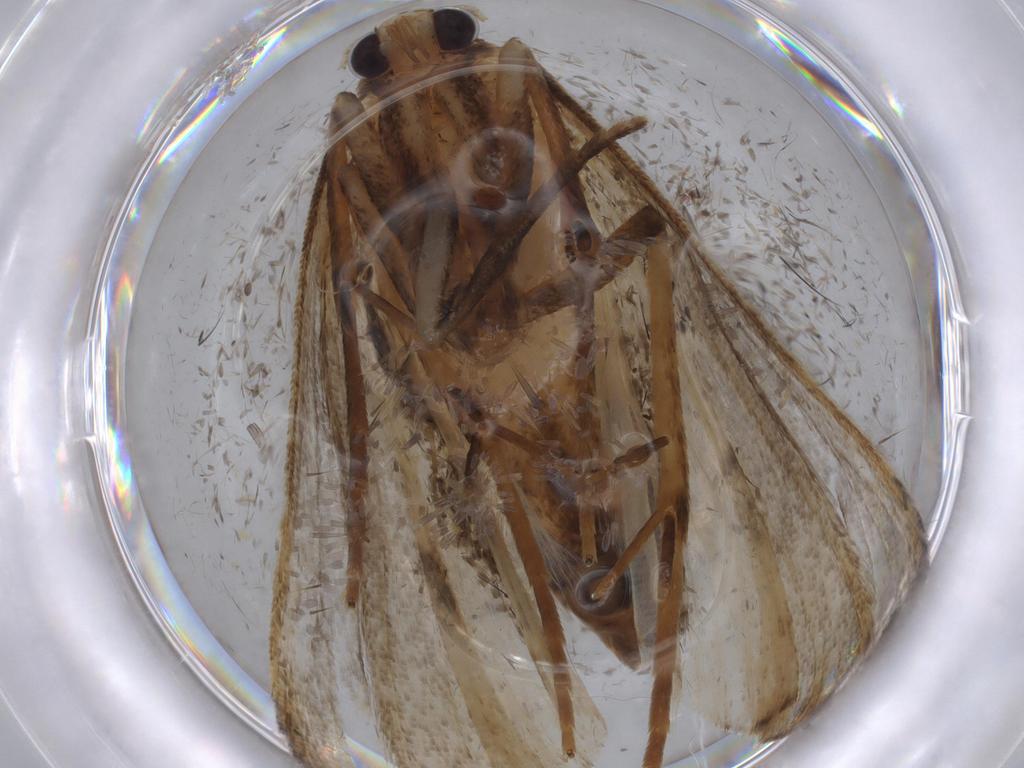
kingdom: Animalia
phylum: Arthropoda
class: Insecta
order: Lepidoptera
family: Noctuidae
